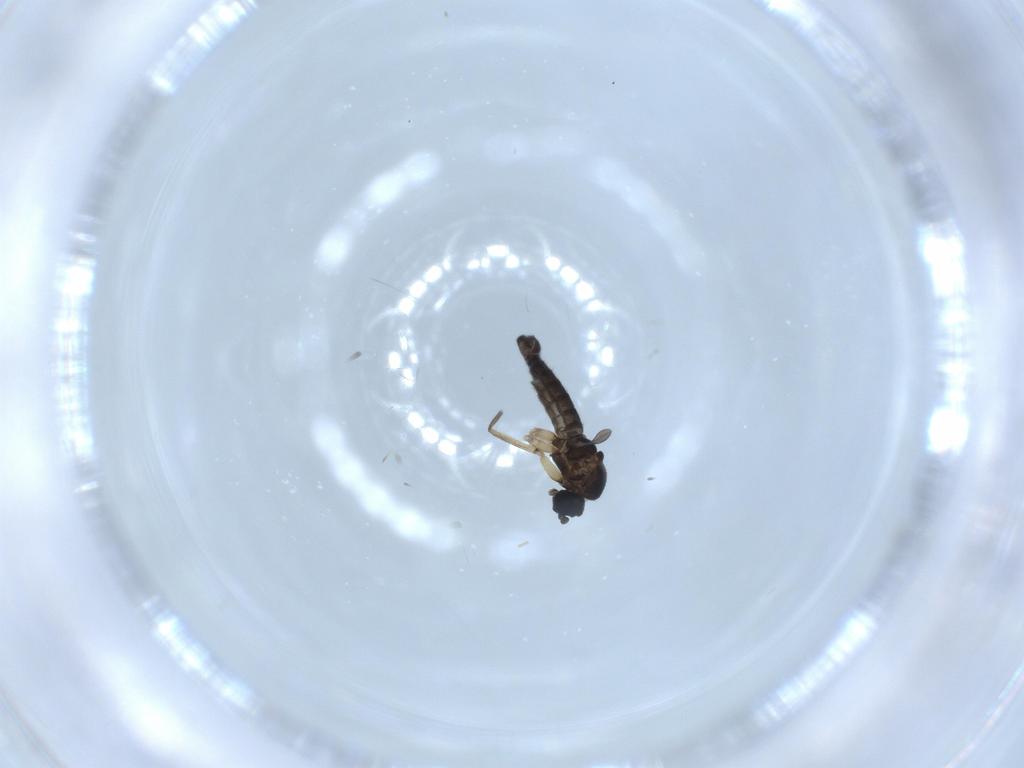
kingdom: Animalia
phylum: Arthropoda
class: Insecta
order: Diptera
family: Sciaridae
